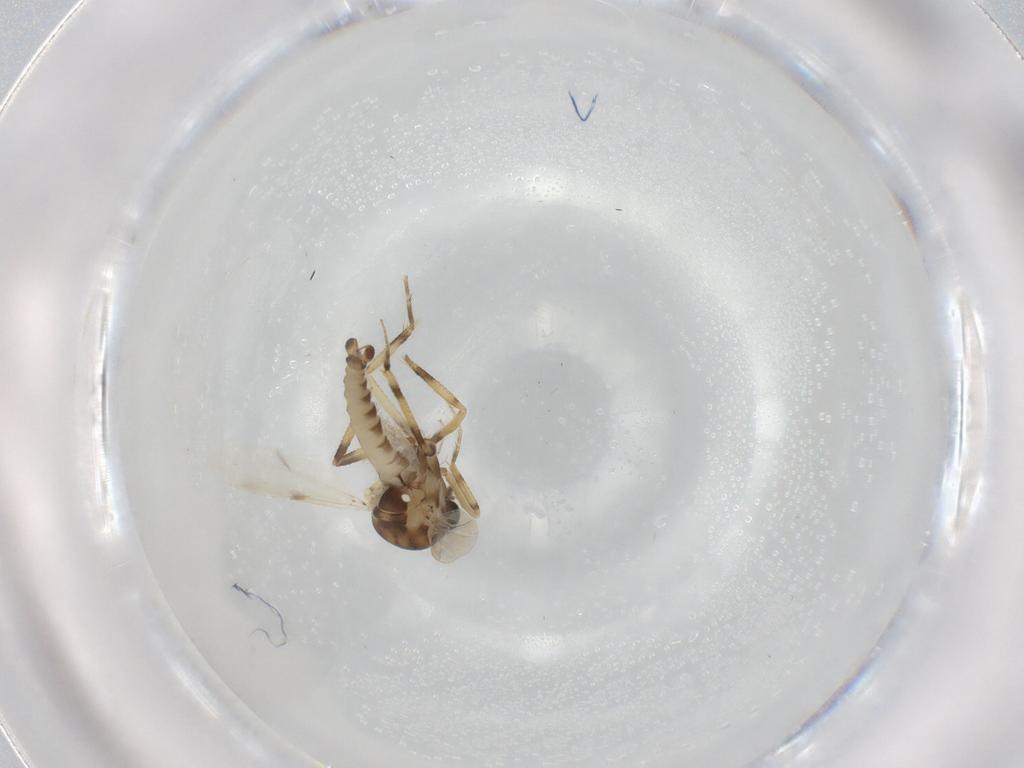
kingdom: Animalia
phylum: Arthropoda
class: Insecta
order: Diptera
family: Ceratopogonidae
